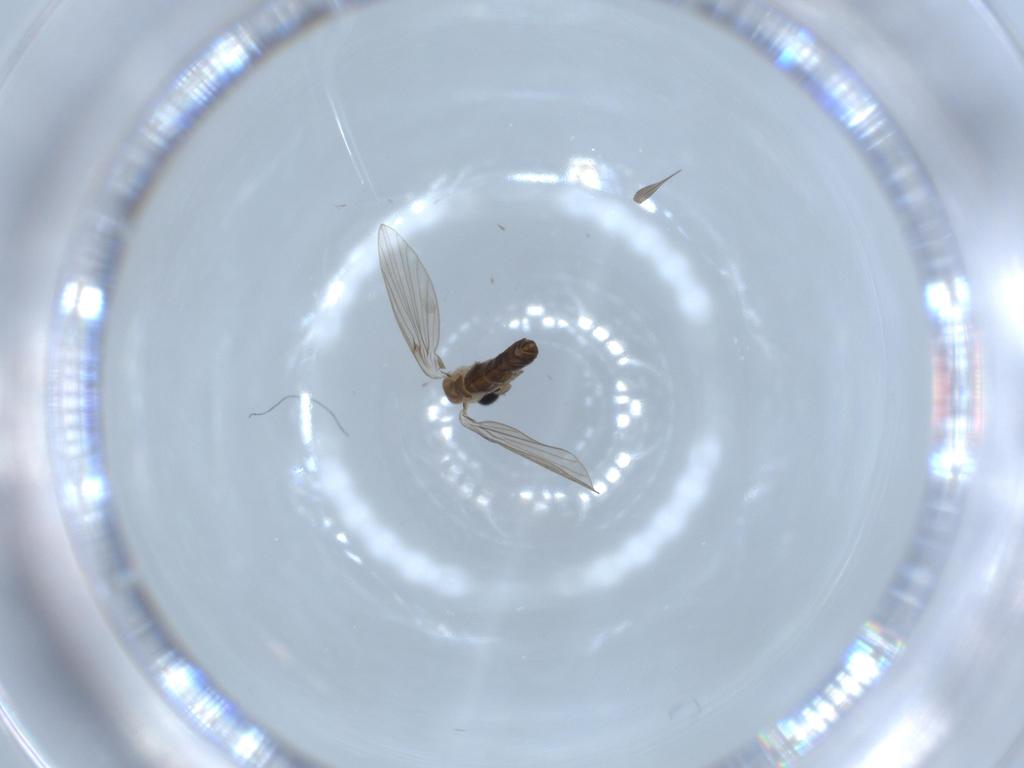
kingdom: Animalia
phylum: Arthropoda
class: Insecta
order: Diptera
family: Psychodidae
